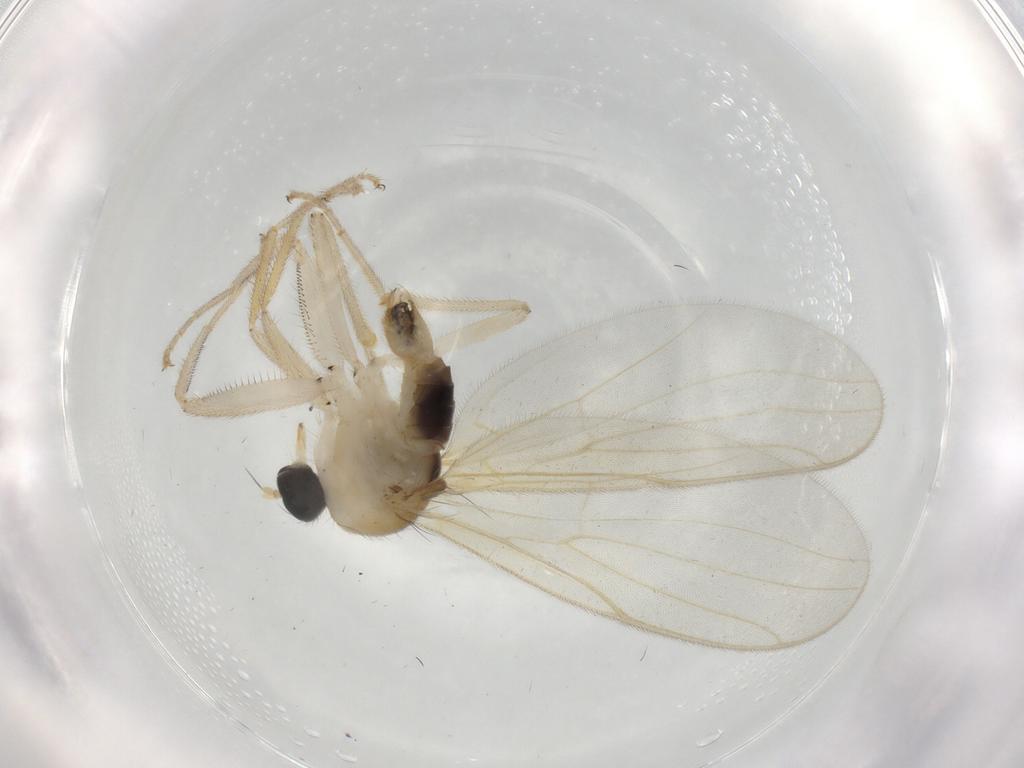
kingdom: Animalia
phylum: Arthropoda
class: Insecta
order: Diptera
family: Hybotidae
